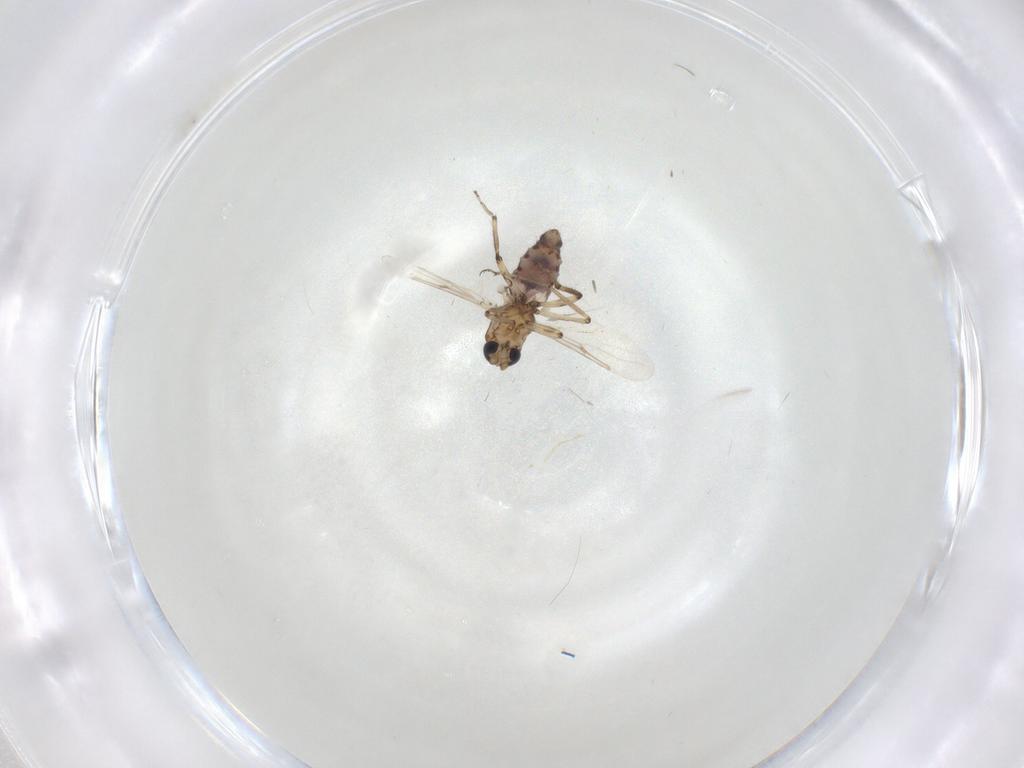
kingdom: Animalia
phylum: Arthropoda
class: Insecta
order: Diptera
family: Ceratopogonidae
